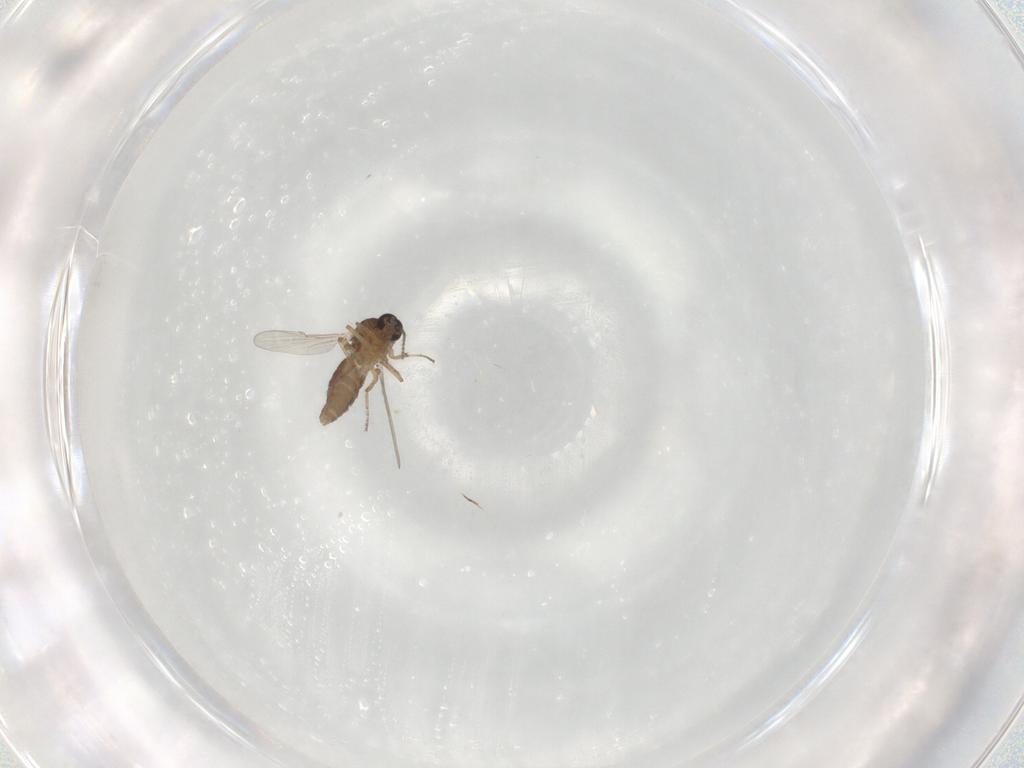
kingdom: Animalia
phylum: Arthropoda
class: Insecta
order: Diptera
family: Ceratopogonidae
